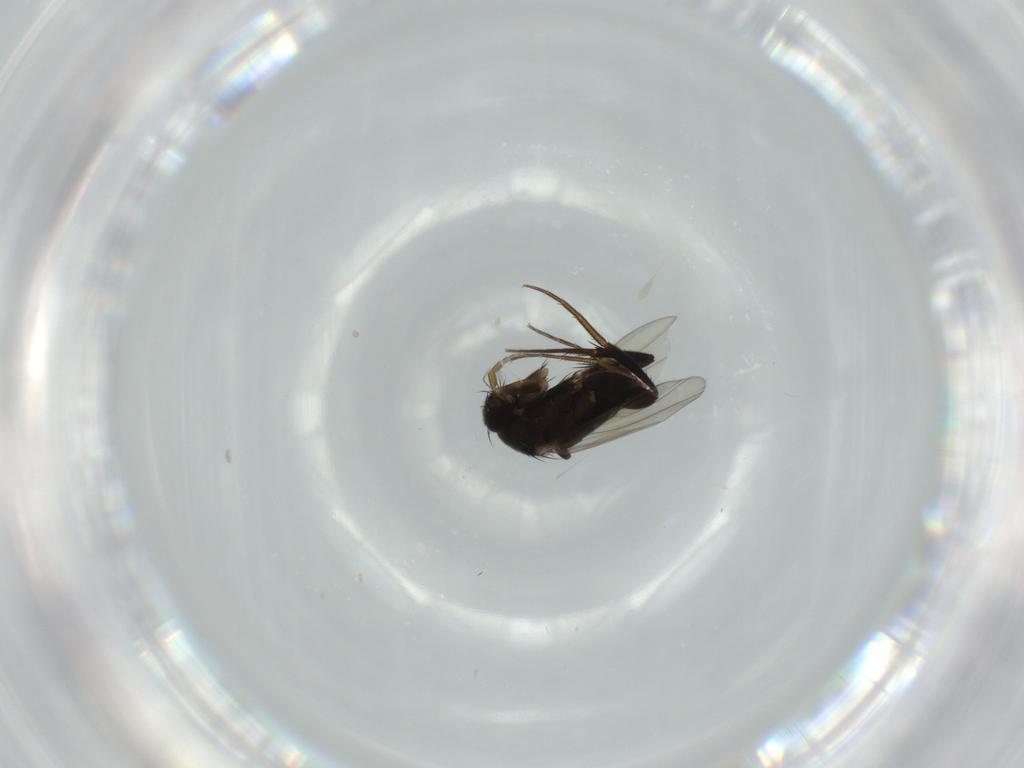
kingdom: Animalia
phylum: Arthropoda
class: Insecta
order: Diptera
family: Phoridae
